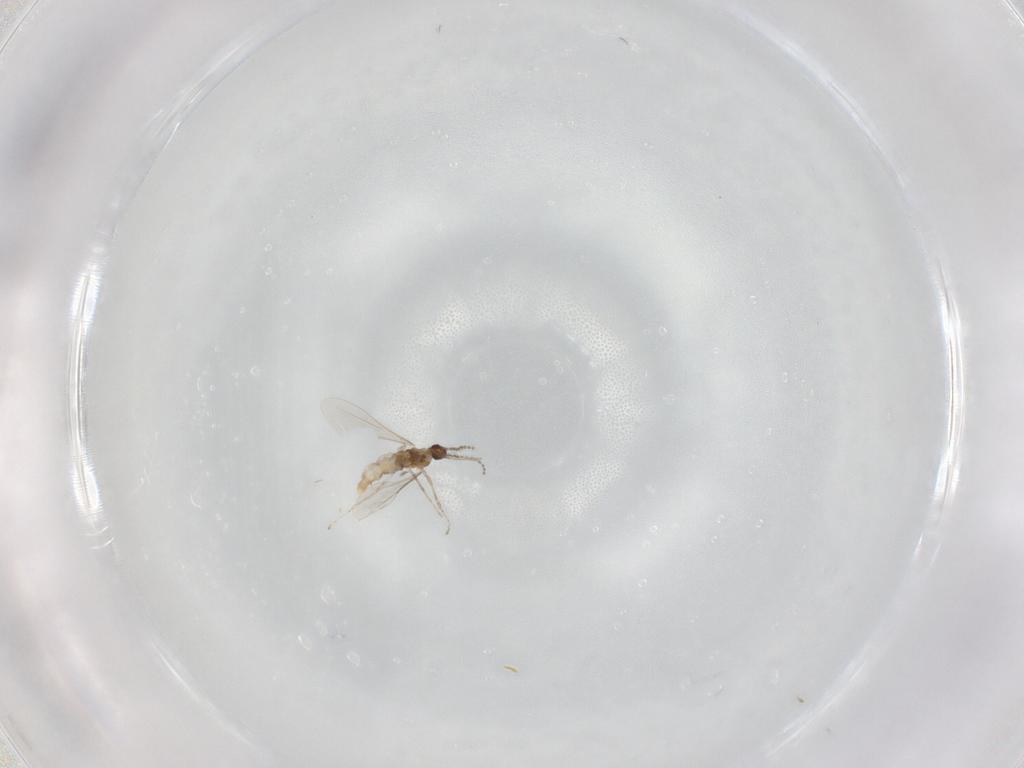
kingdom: Animalia
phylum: Arthropoda
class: Insecta
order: Diptera
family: Cecidomyiidae
